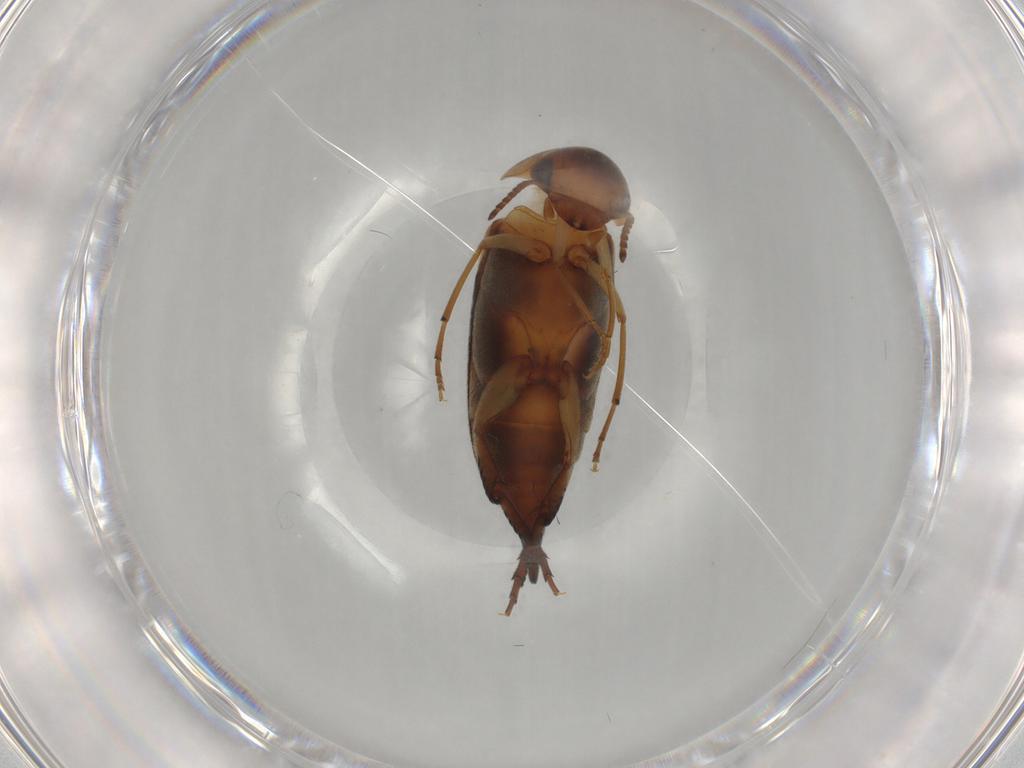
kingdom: Animalia
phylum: Arthropoda
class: Insecta
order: Coleoptera
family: Mordellidae
